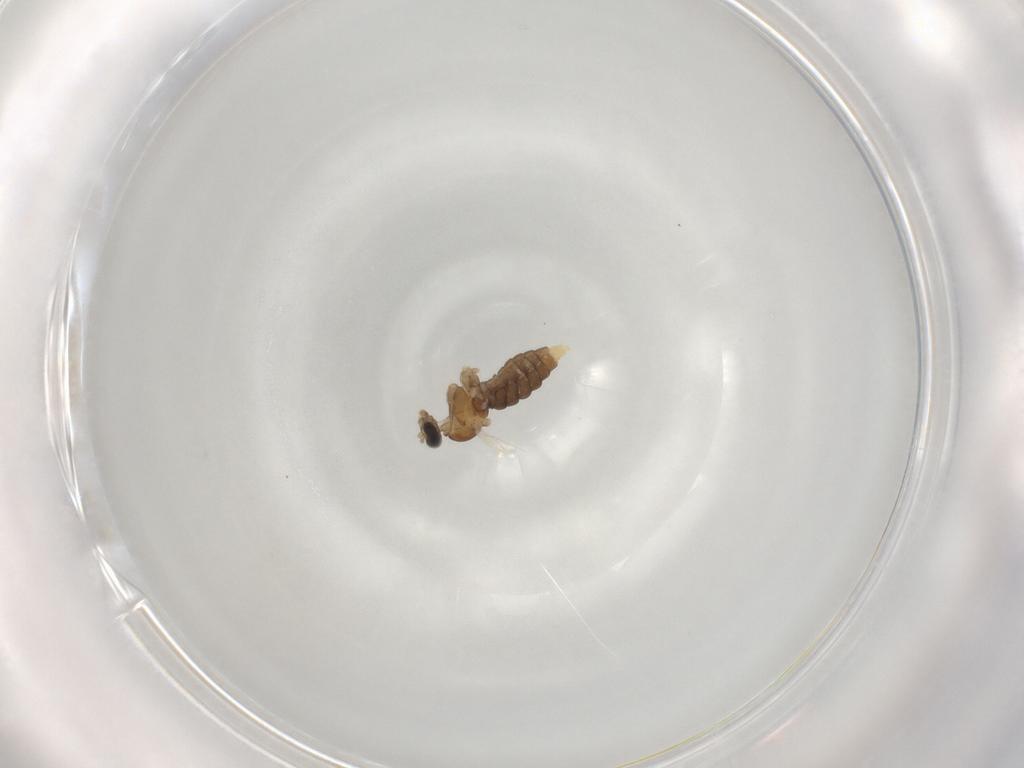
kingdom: Animalia
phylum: Arthropoda
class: Insecta
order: Diptera
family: Cecidomyiidae
